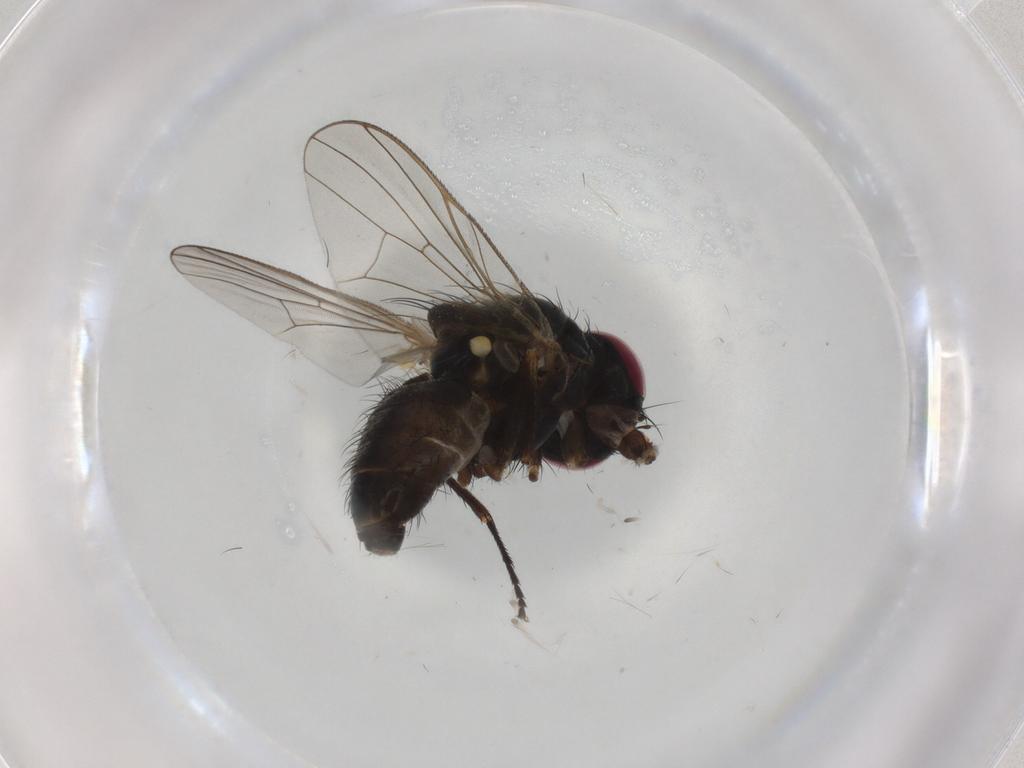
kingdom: Animalia
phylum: Arthropoda
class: Insecta
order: Diptera
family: Fannia
